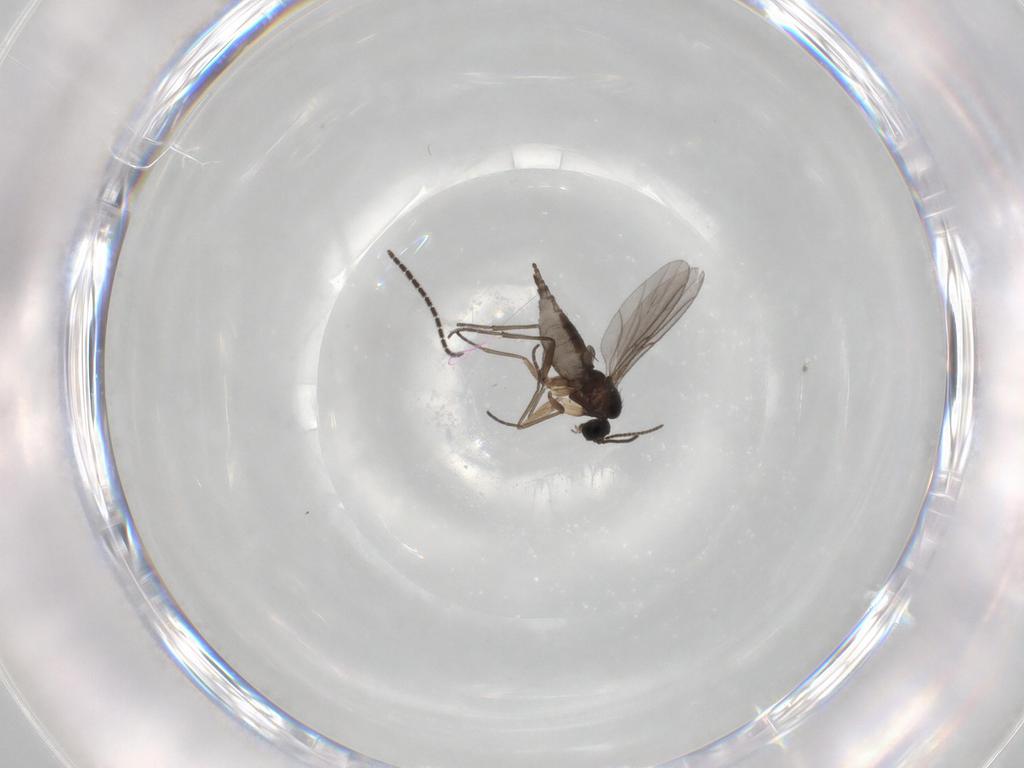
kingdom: Animalia
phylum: Arthropoda
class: Insecta
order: Diptera
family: Sciaridae
